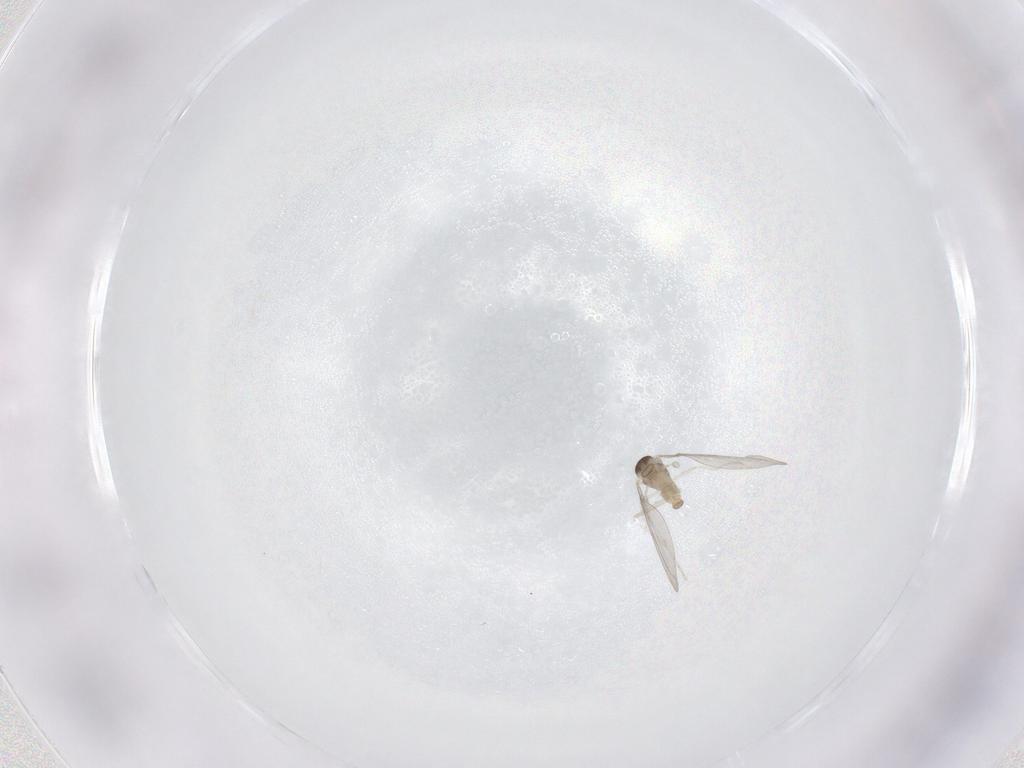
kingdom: Animalia
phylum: Arthropoda
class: Insecta
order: Diptera
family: Cecidomyiidae
